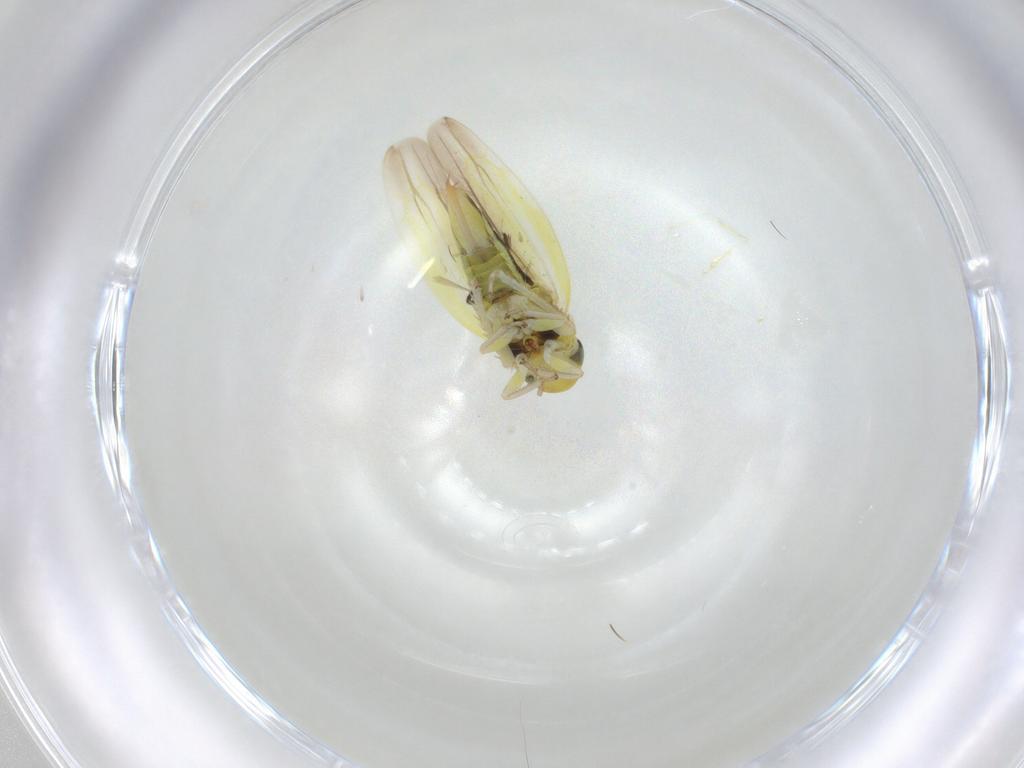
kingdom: Animalia
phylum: Arthropoda
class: Insecta
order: Hemiptera
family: Cicadellidae
